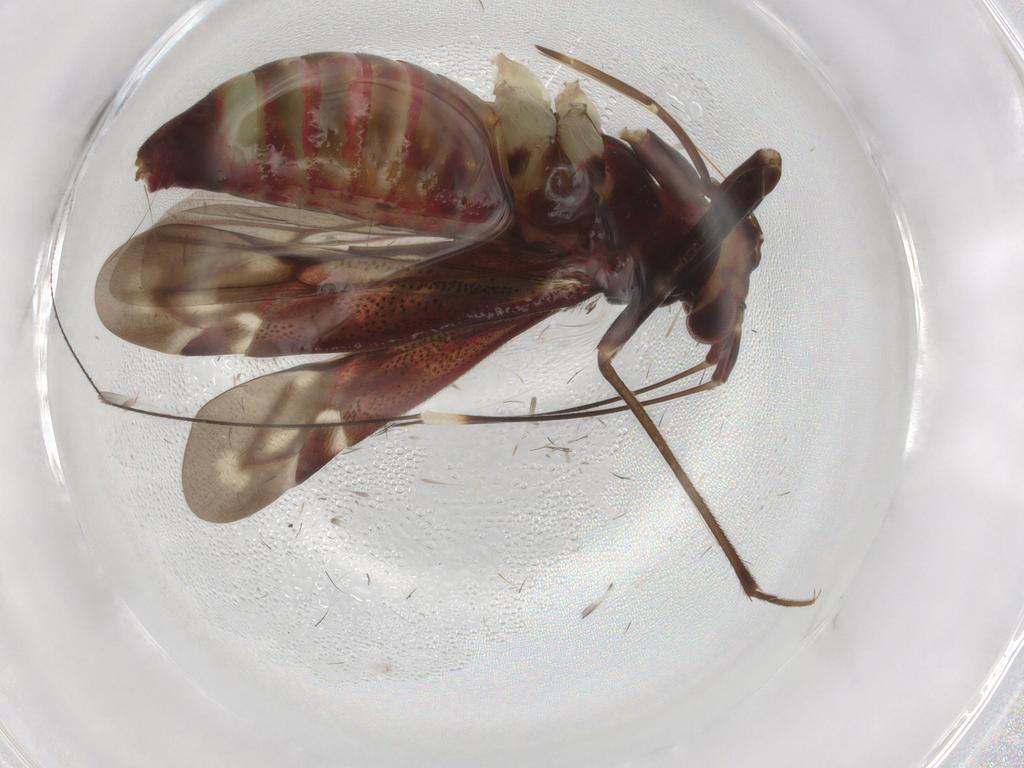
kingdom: Animalia
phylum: Arthropoda
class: Insecta
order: Hemiptera
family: Miridae
